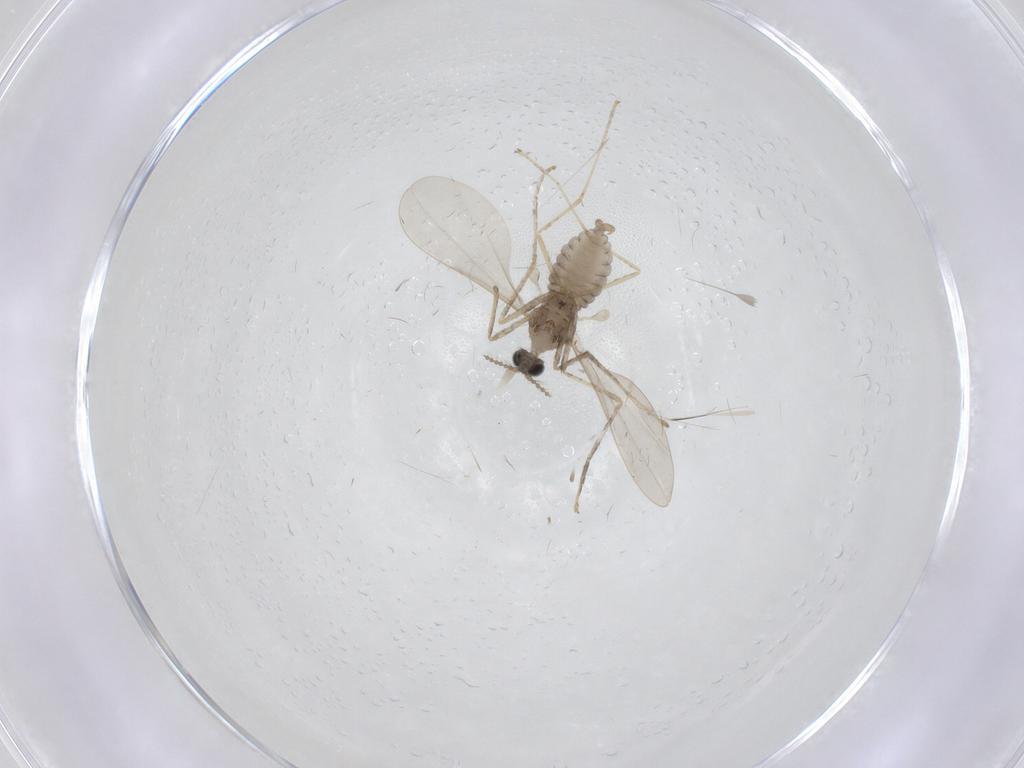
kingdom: Animalia
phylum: Arthropoda
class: Insecta
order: Diptera
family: Cecidomyiidae
